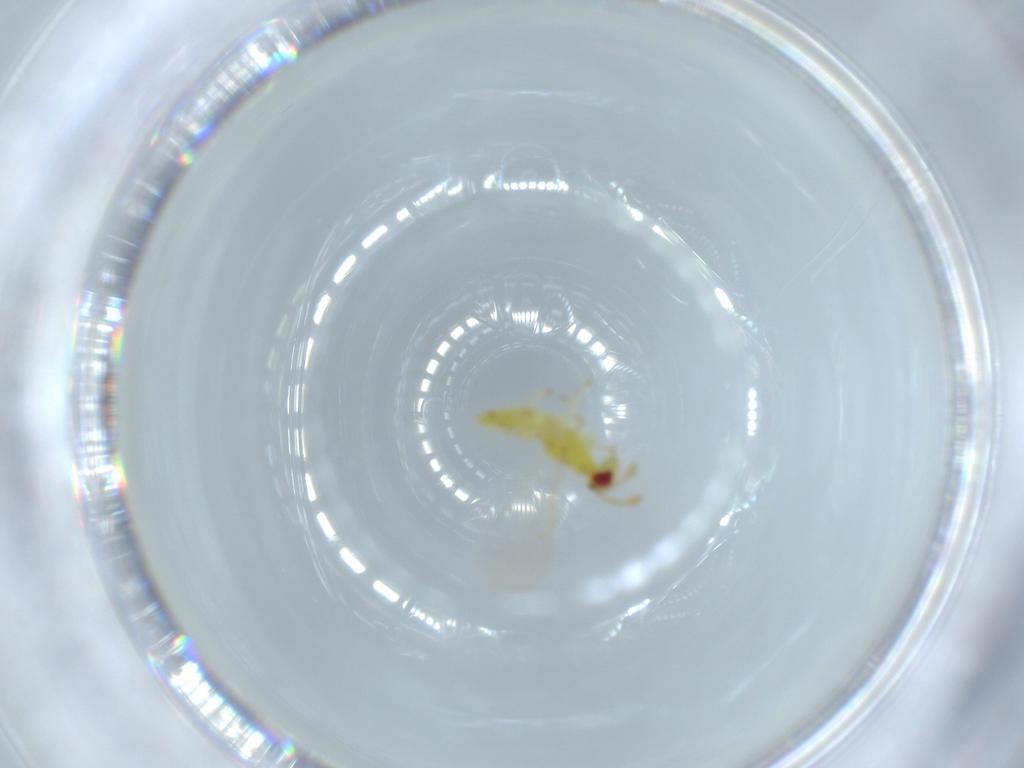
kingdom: Animalia
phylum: Arthropoda
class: Insecta
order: Hymenoptera
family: Eulophidae
